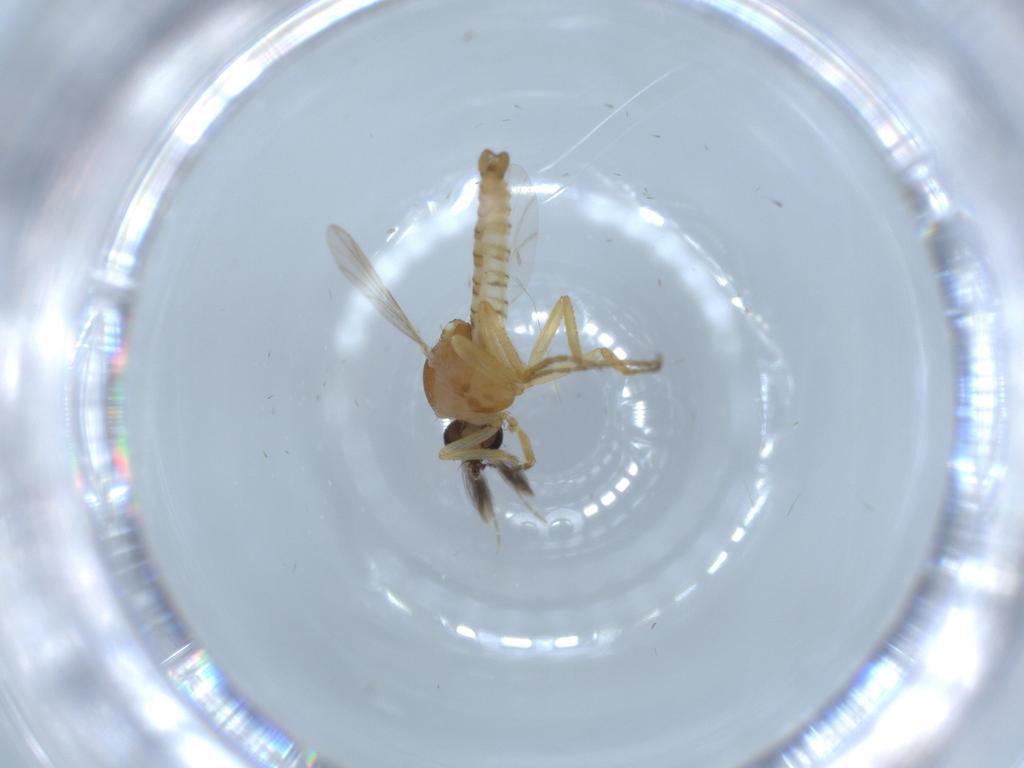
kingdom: Animalia
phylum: Arthropoda
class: Insecta
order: Diptera
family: Ceratopogonidae
